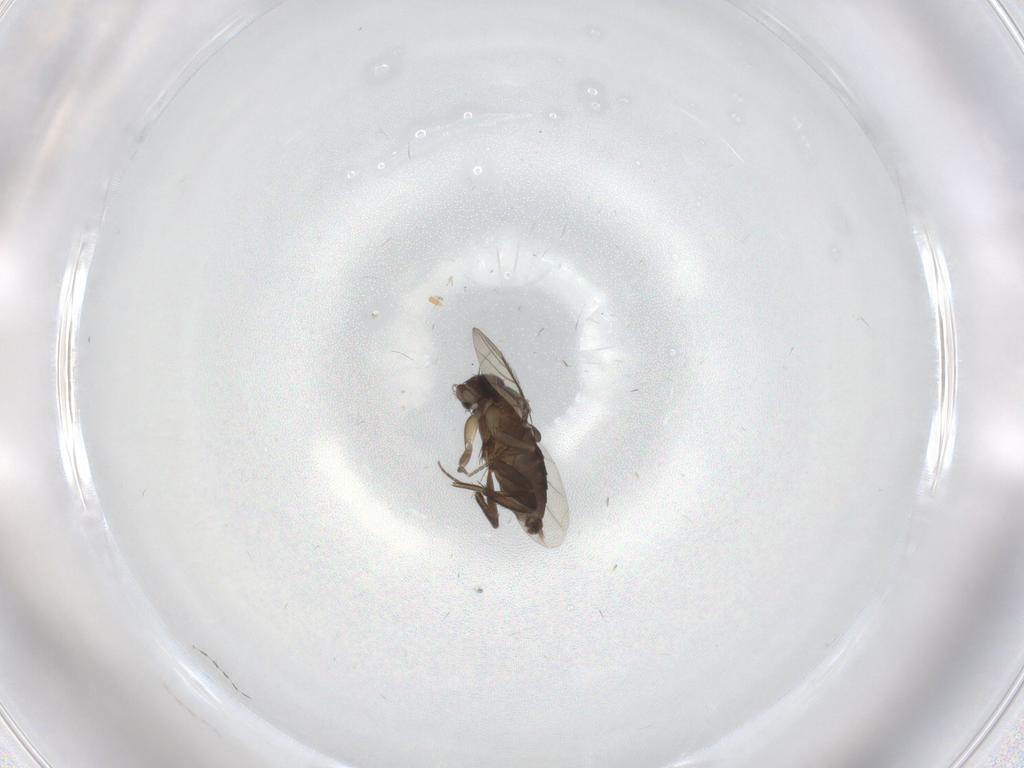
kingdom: Animalia
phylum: Arthropoda
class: Insecta
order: Diptera
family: Phoridae
